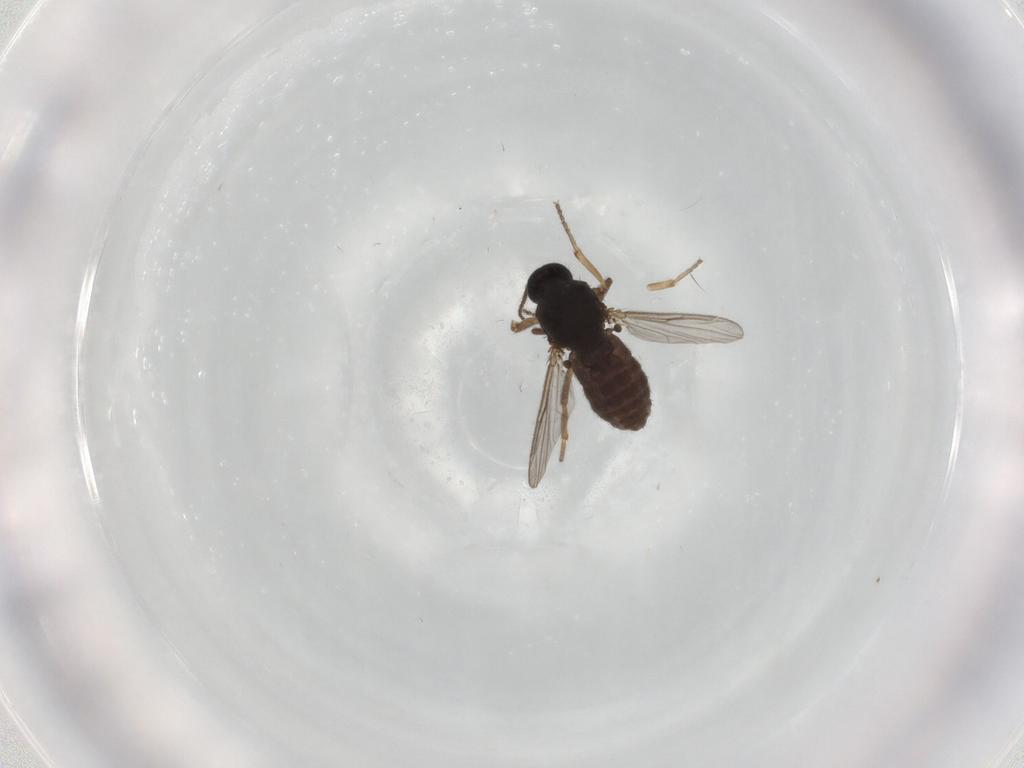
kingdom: Animalia
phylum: Arthropoda
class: Insecta
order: Diptera
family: Ceratopogonidae
